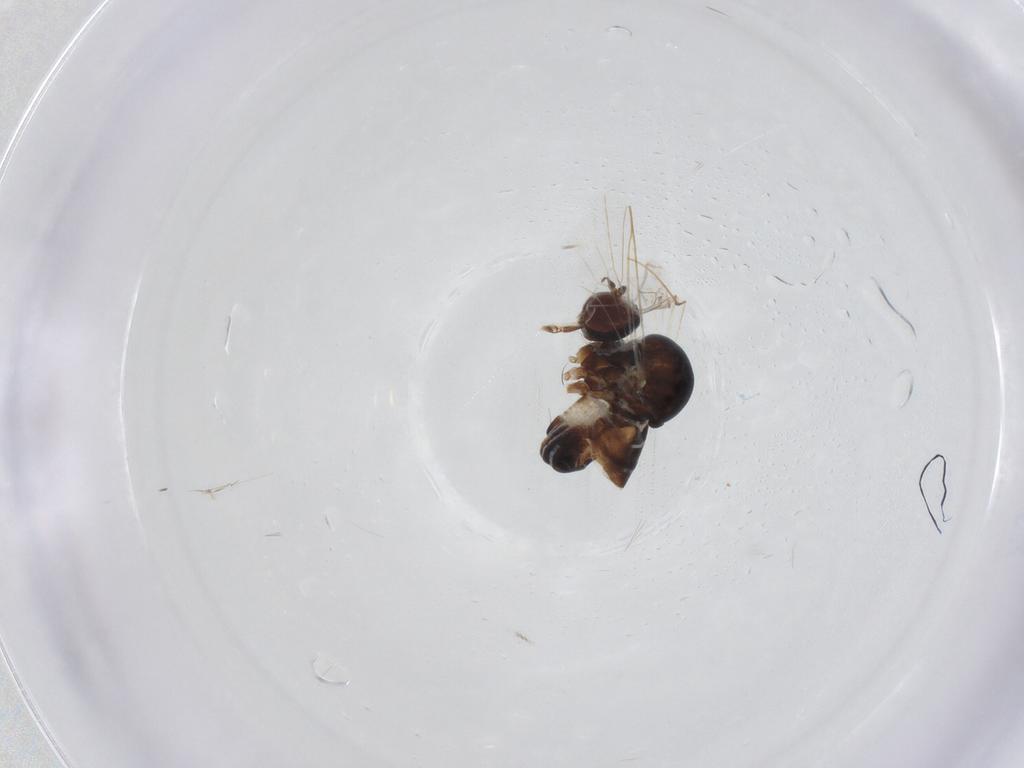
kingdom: Animalia
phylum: Arthropoda
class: Insecta
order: Diptera
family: Bombyliidae
